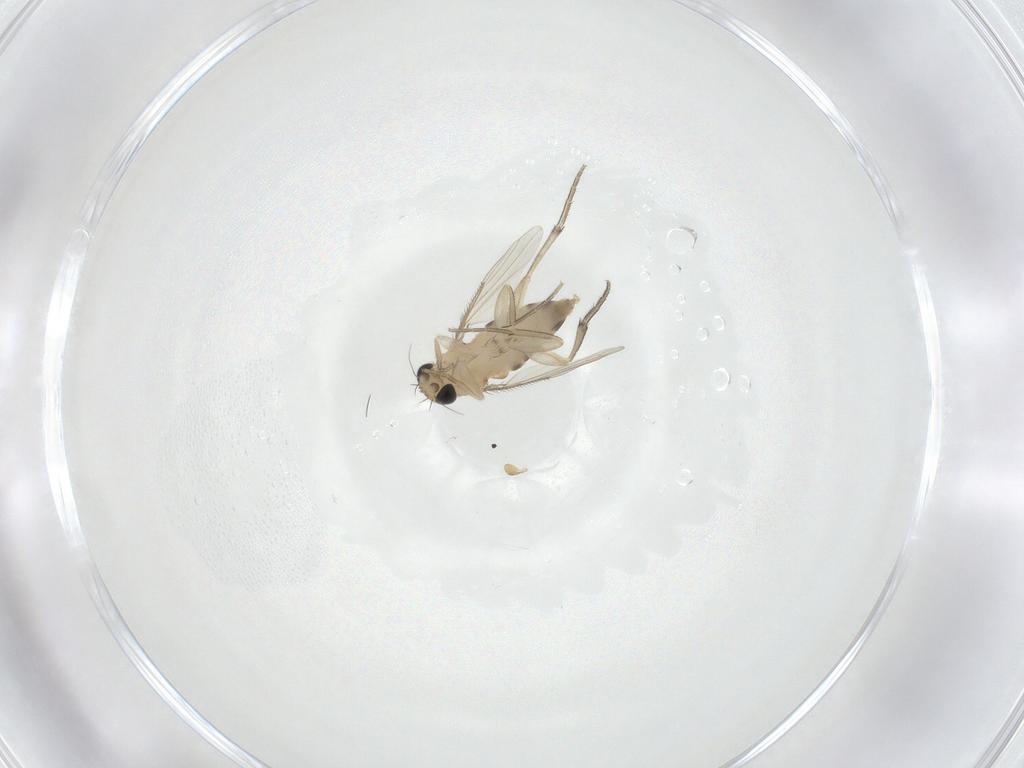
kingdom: Animalia
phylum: Arthropoda
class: Insecta
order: Diptera
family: Phoridae
